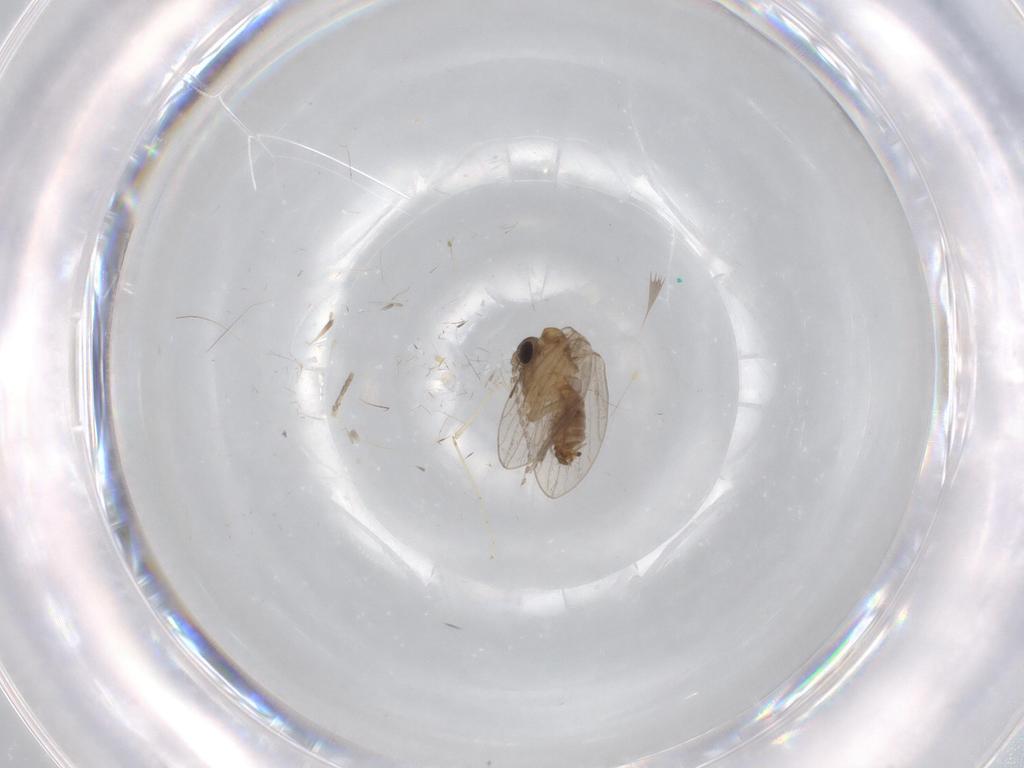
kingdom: Animalia
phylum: Arthropoda
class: Insecta
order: Diptera
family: Psychodidae
